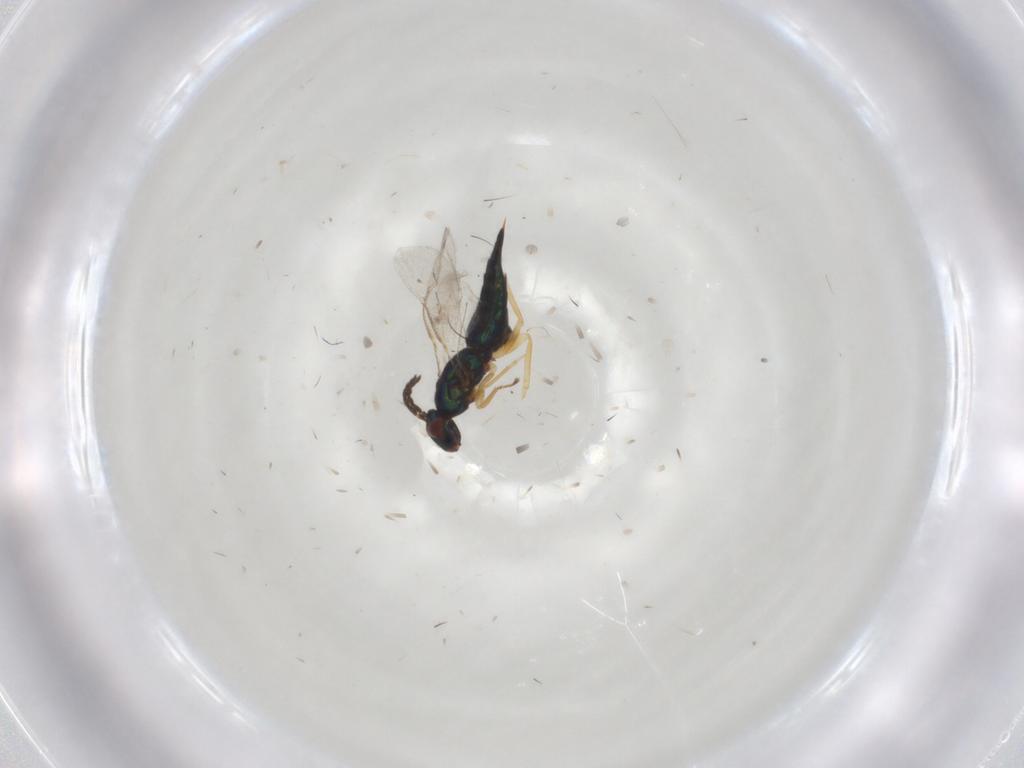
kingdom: Animalia
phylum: Arthropoda
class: Insecta
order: Hymenoptera
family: Eulophidae
